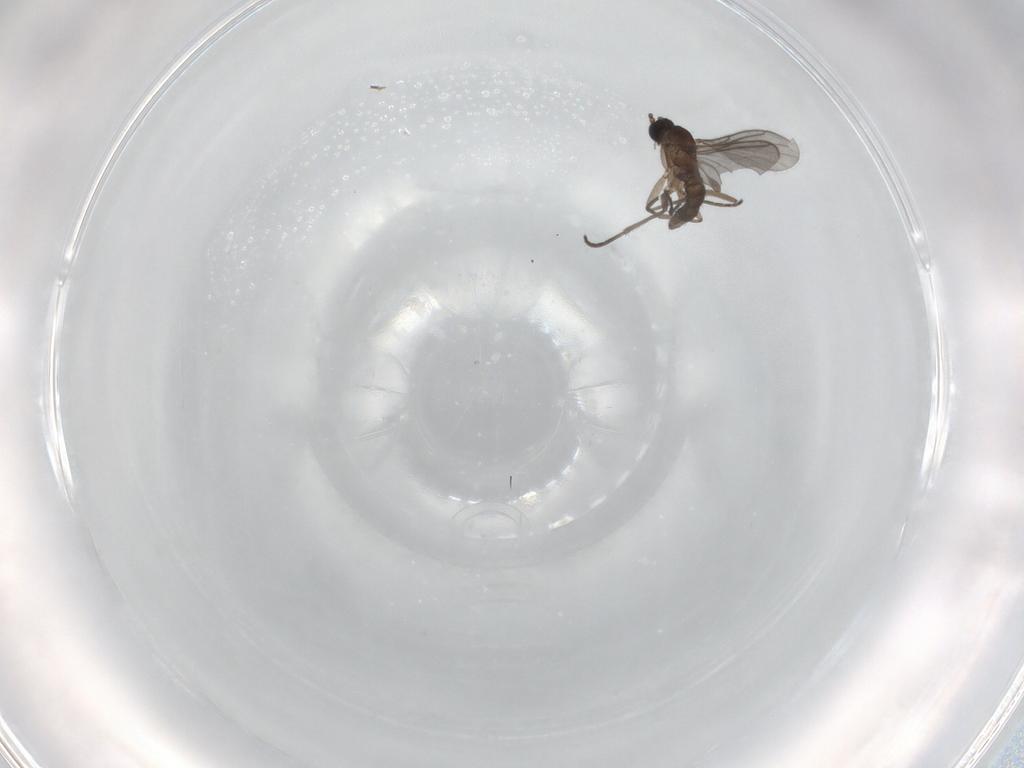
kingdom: Animalia
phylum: Arthropoda
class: Insecta
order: Diptera
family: Sciaridae
